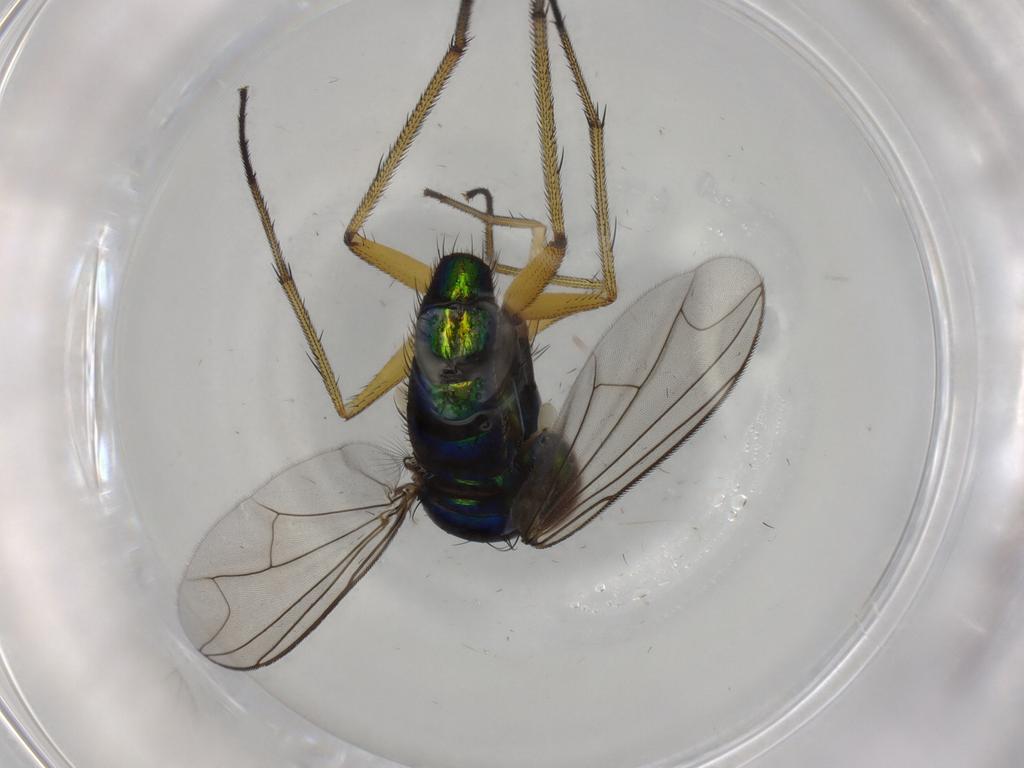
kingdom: Animalia
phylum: Arthropoda
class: Insecta
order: Diptera
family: Dolichopodidae
